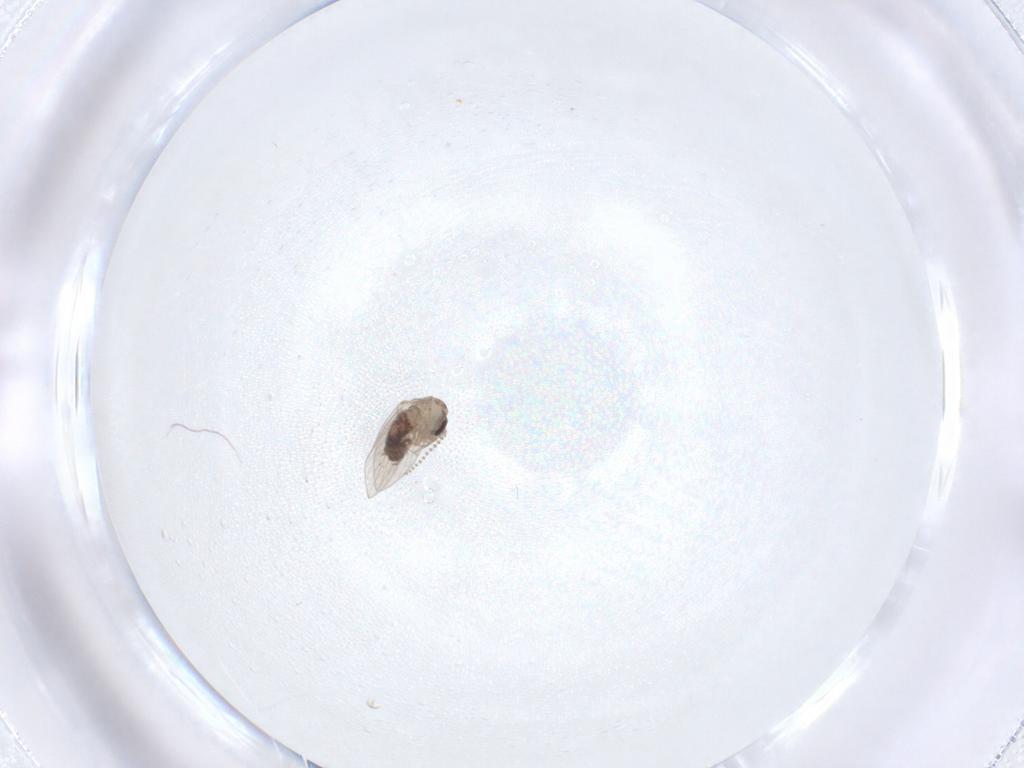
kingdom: Animalia
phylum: Arthropoda
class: Insecta
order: Diptera
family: Psychodidae
